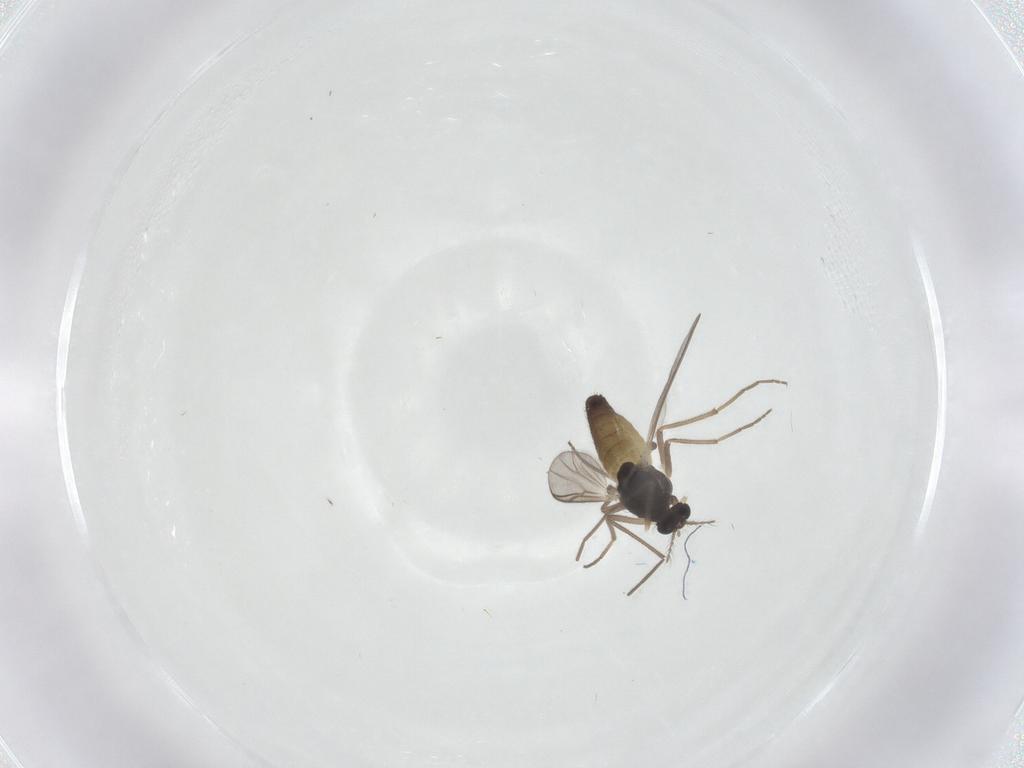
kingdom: Animalia
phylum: Arthropoda
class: Insecta
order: Diptera
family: Chironomidae
